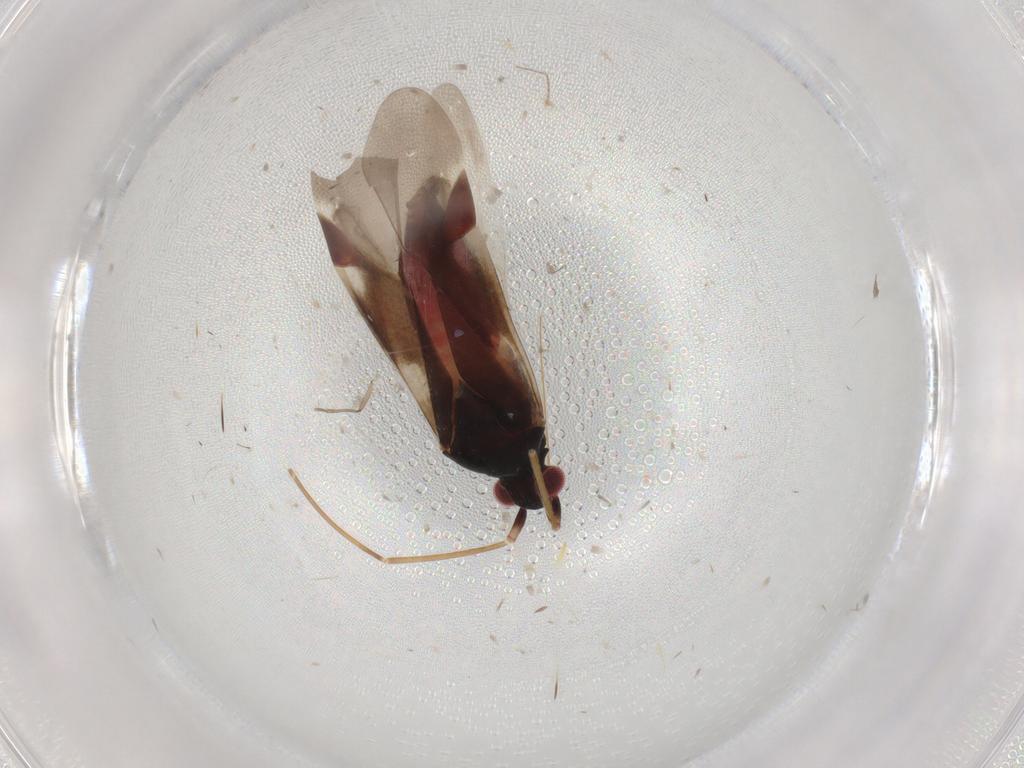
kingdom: Animalia
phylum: Arthropoda
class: Insecta
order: Hemiptera
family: Miridae
